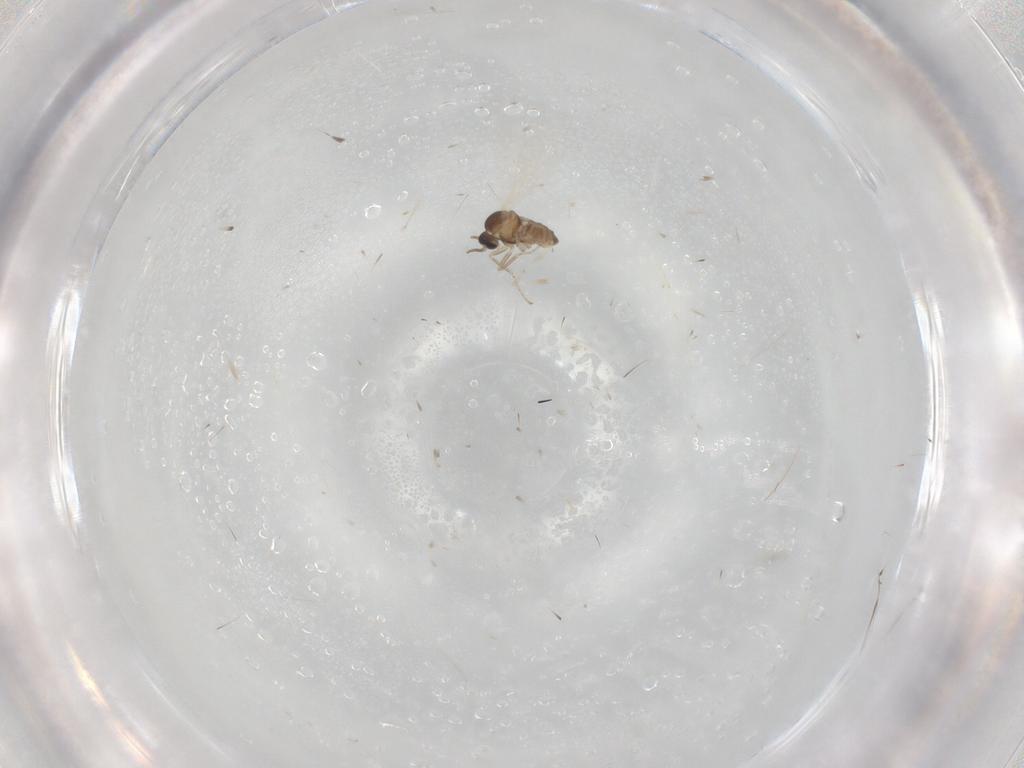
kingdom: Animalia
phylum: Arthropoda
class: Insecta
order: Diptera
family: Cecidomyiidae
